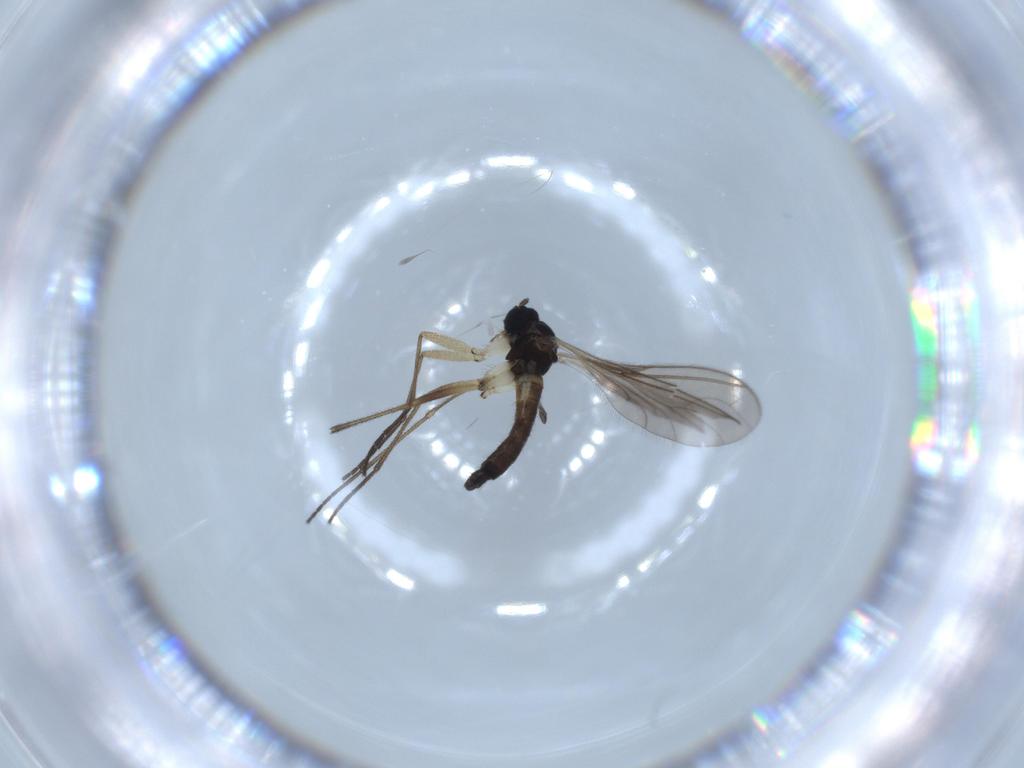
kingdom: Animalia
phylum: Arthropoda
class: Insecta
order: Diptera
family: Sciaridae
